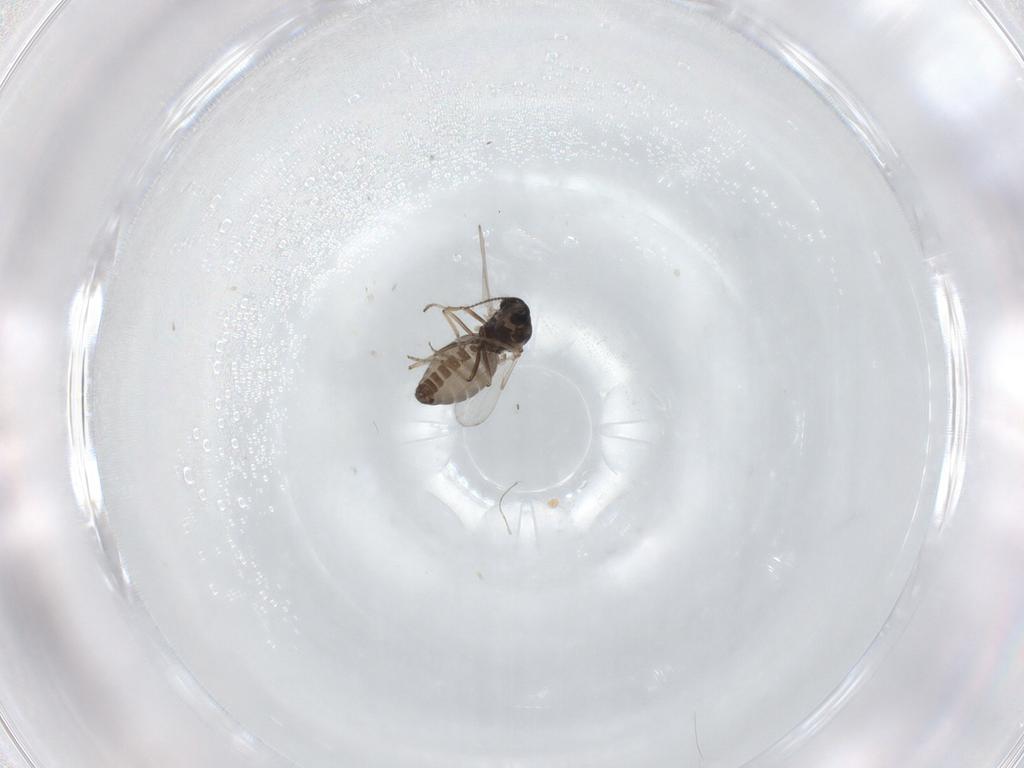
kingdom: Animalia
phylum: Arthropoda
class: Insecta
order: Diptera
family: Ceratopogonidae
